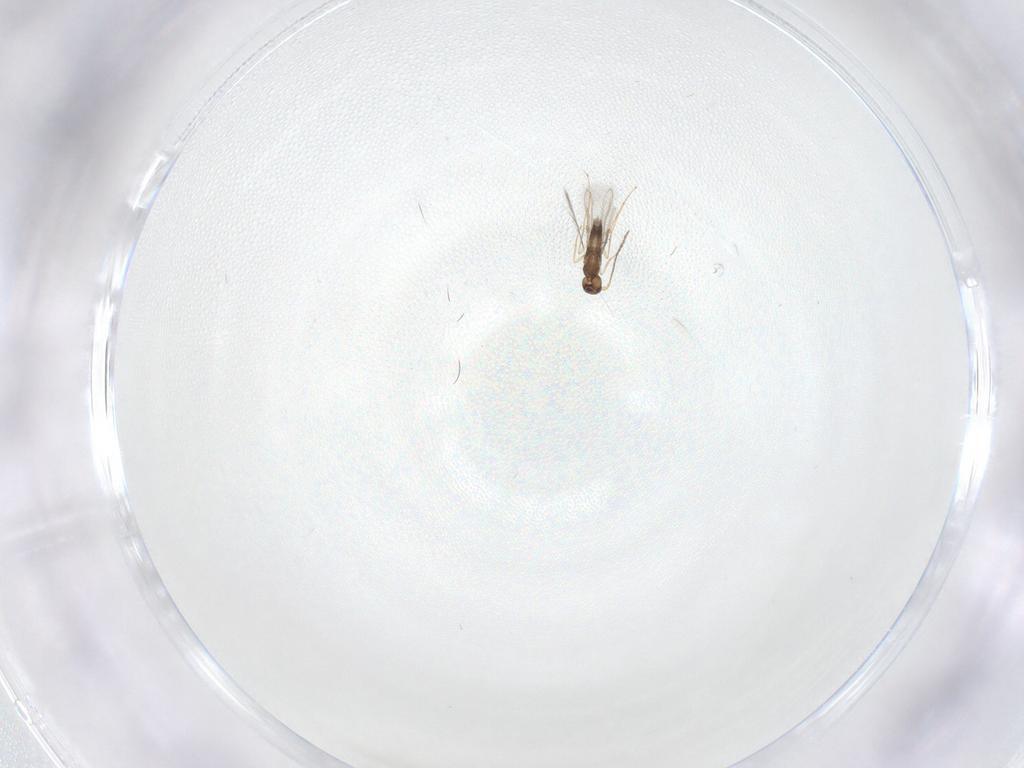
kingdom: Animalia
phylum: Arthropoda
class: Insecta
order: Hymenoptera
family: Mymaridae
